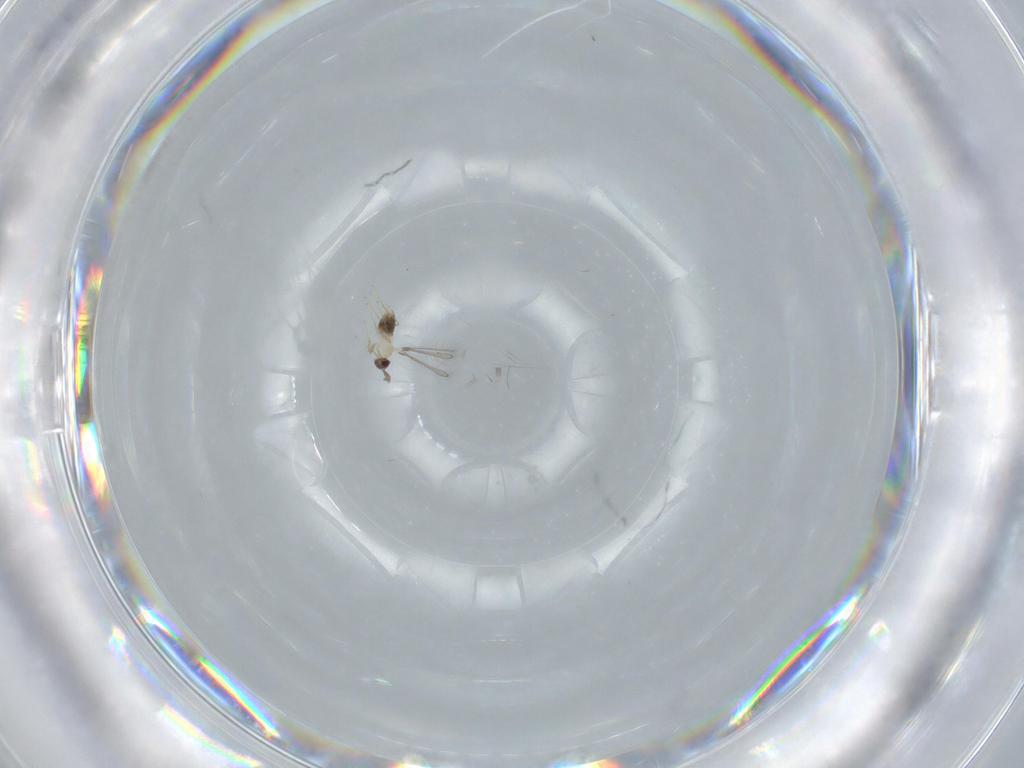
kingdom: Animalia
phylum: Arthropoda
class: Insecta
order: Hymenoptera
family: Mymaridae
